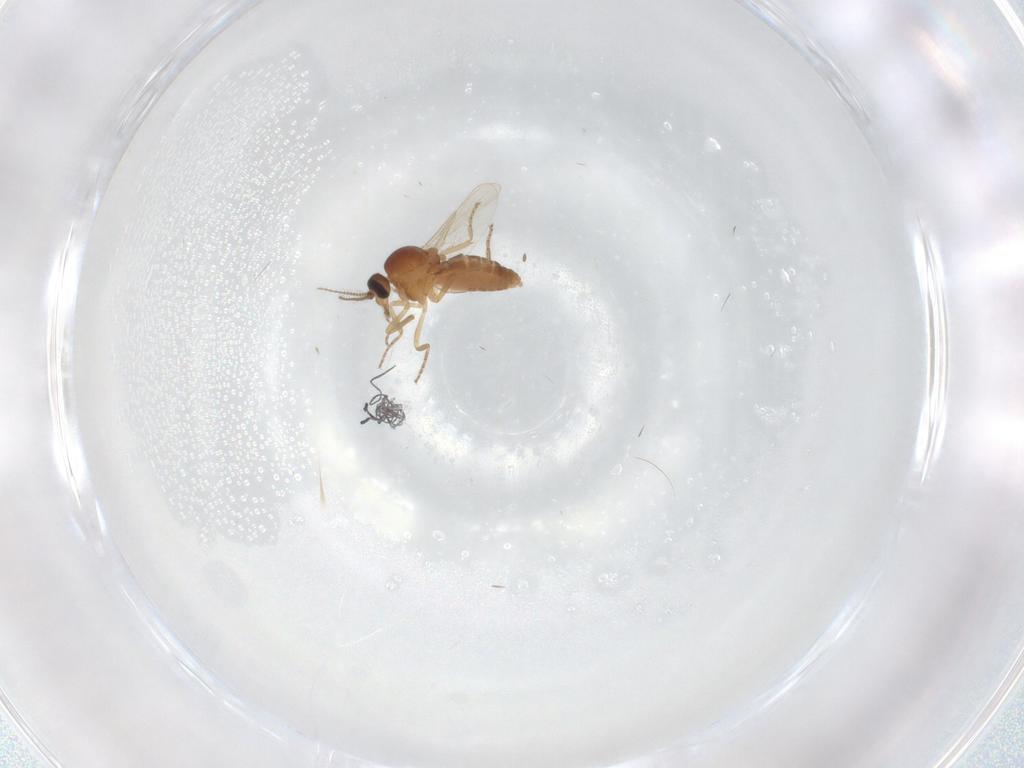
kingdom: Animalia
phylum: Arthropoda
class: Insecta
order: Diptera
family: Ceratopogonidae
